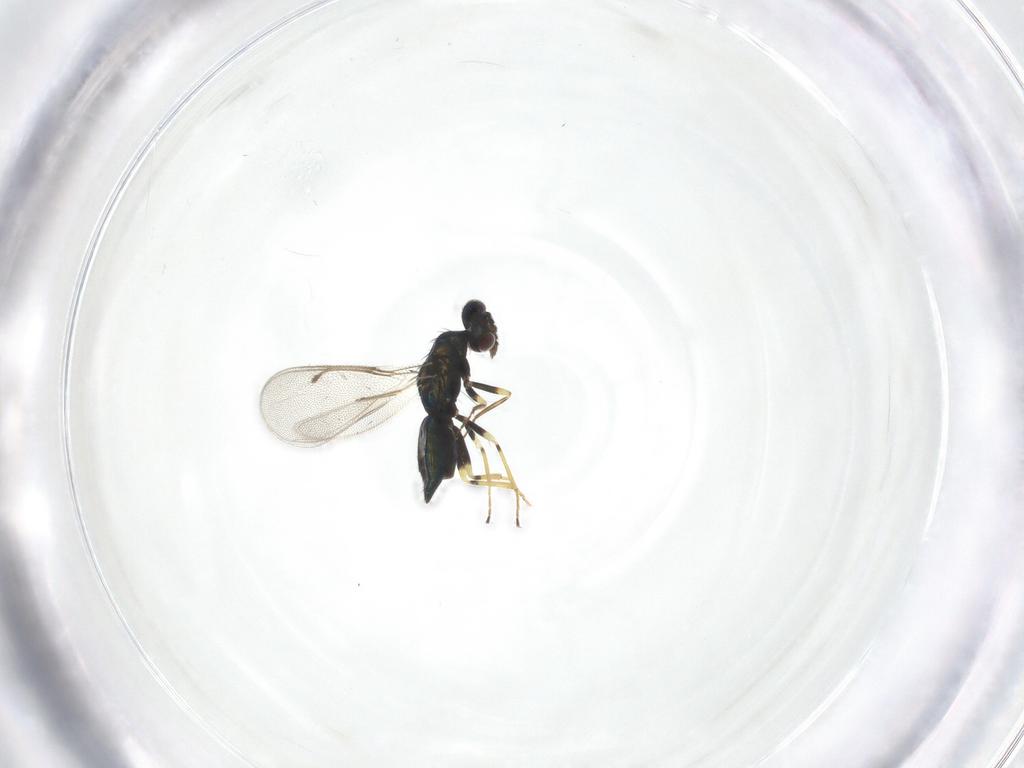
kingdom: Animalia
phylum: Arthropoda
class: Insecta
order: Hymenoptera
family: Eulophidae
